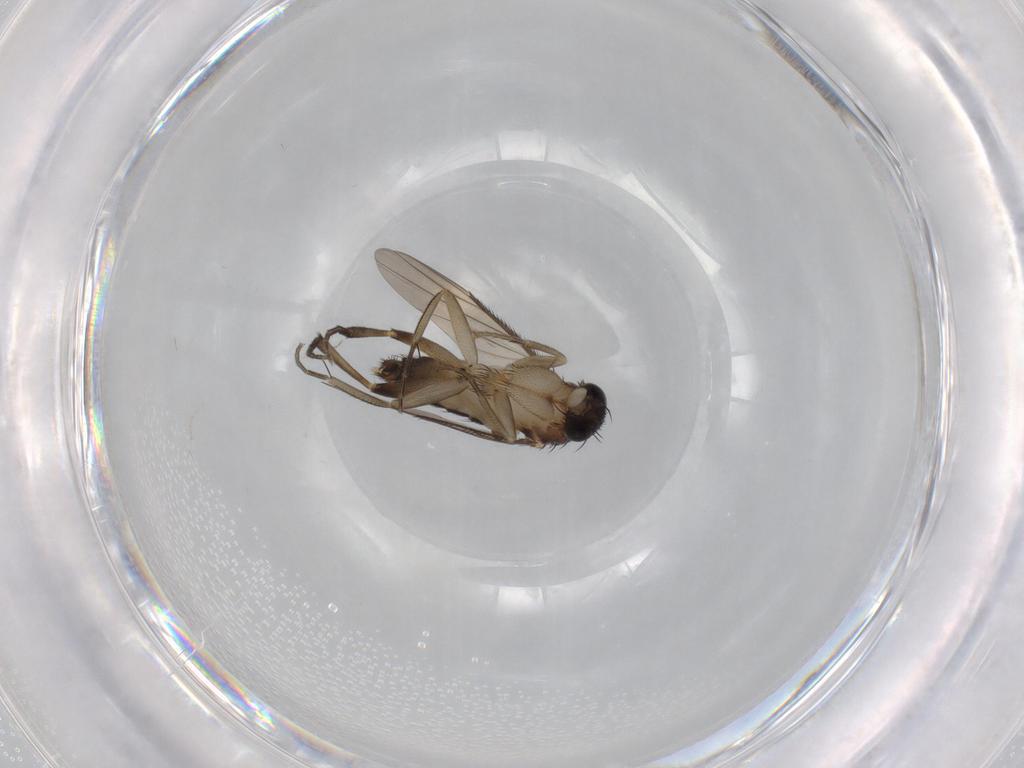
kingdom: Animalia
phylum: Arthropoda
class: Insecta
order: Diptera
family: Phoridae
